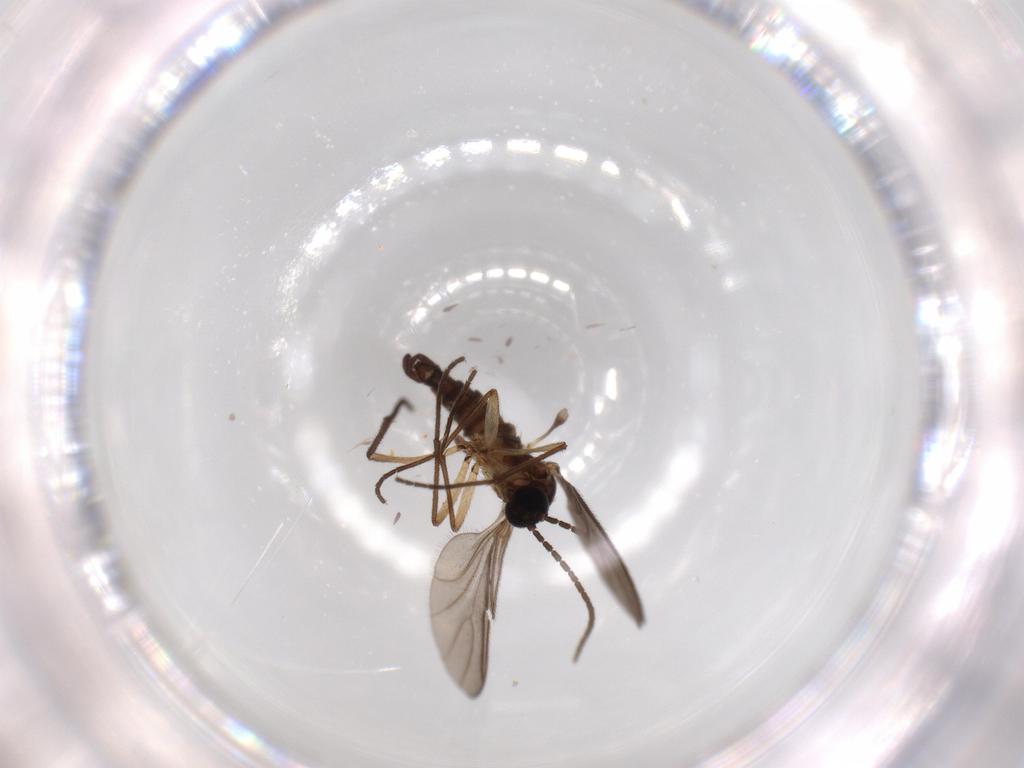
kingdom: Animalia
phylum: Arthropoda
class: Insecta
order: Diptera
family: Sciaridae
